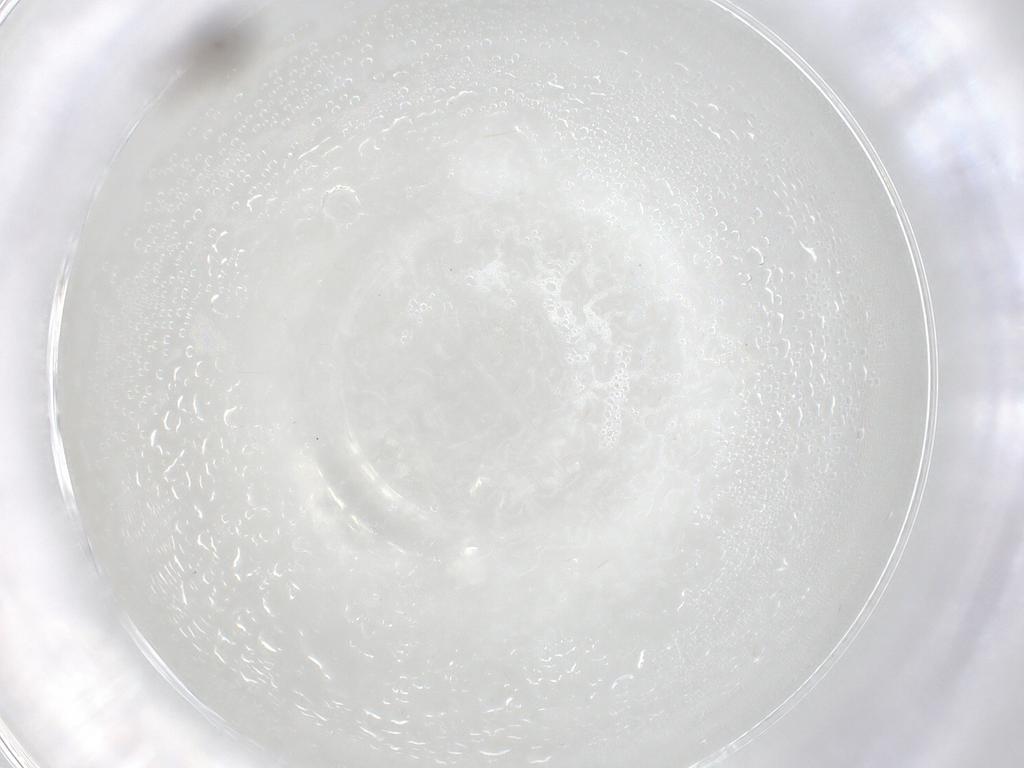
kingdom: Animalia
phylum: Arthropoda
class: Insecta
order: Hymenoptera
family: Bethylidae
